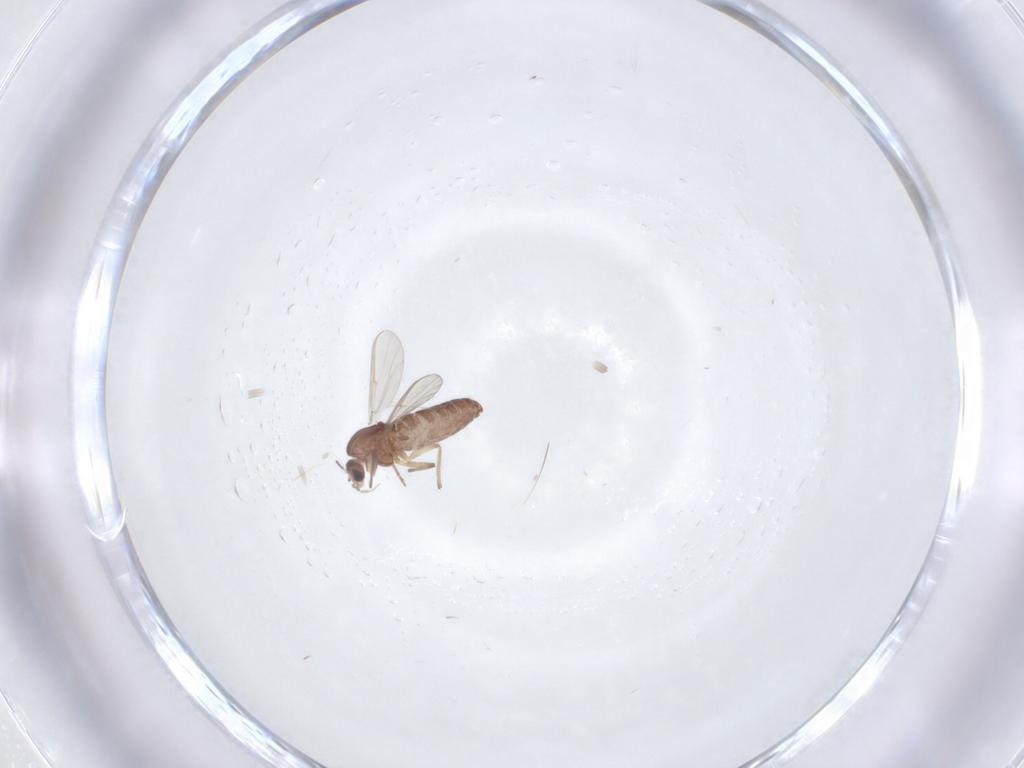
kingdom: Animalia
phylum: Arthropoda
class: Insecta
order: Diptera
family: Chironomidae
